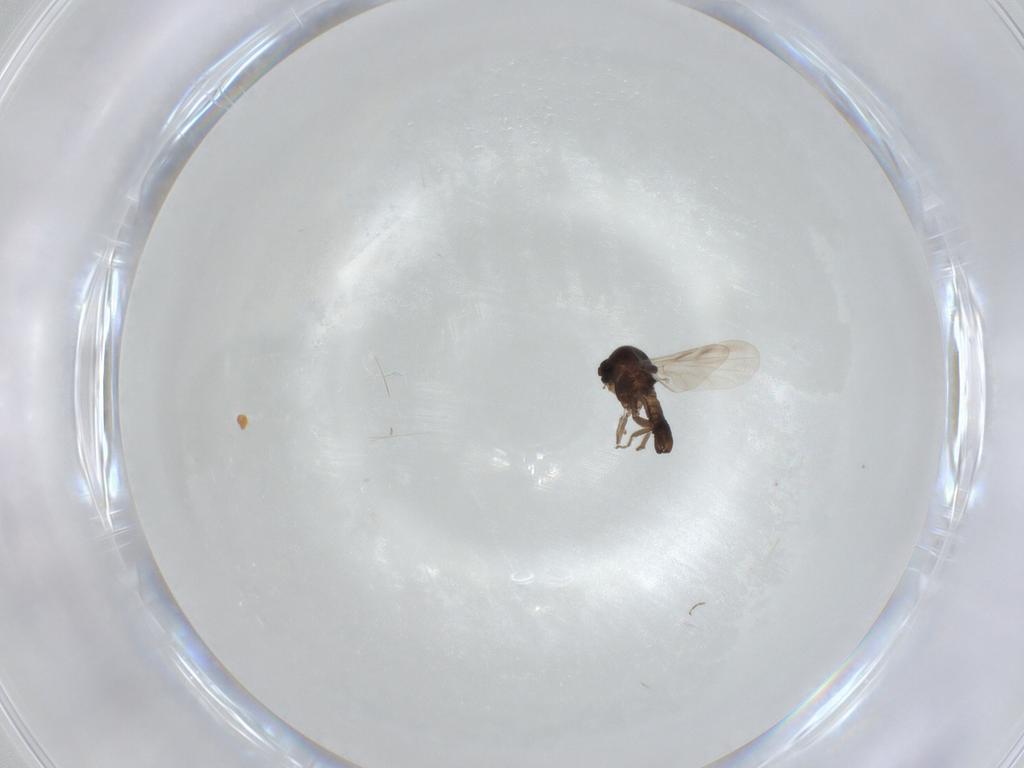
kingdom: Animalia
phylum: Arthropoda
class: Insecta
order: Diptera
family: Ceratopogonidae
